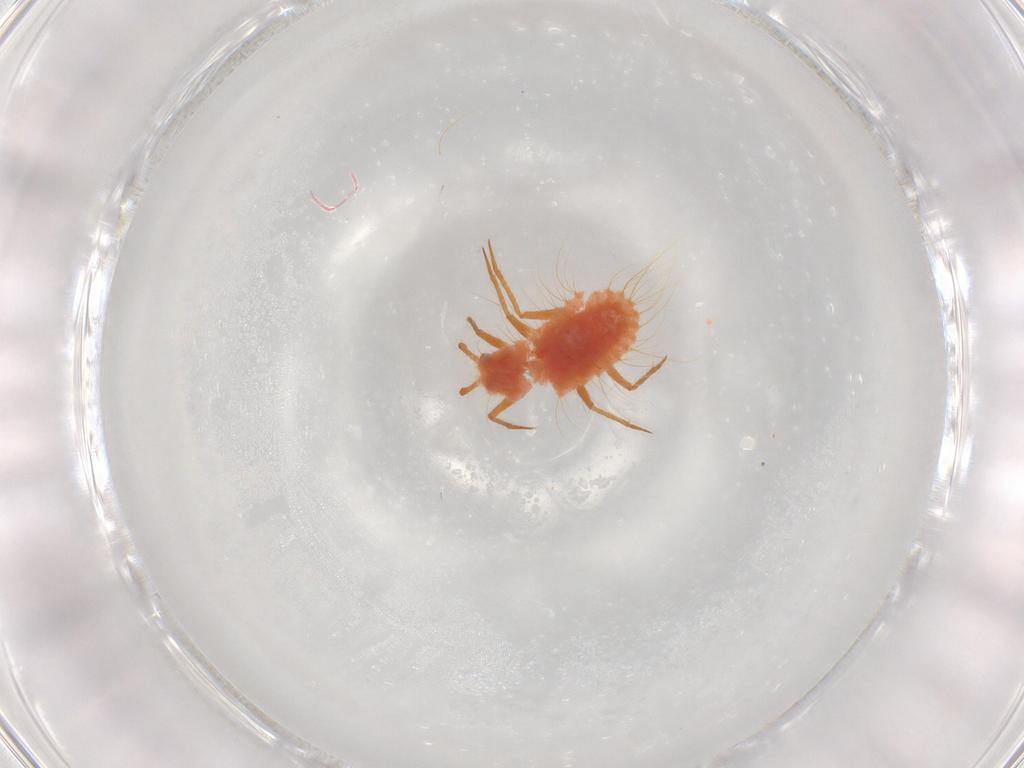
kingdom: Animalia
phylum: Arthropoda
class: Insecta
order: Hemiptera
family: Monophlebidae
